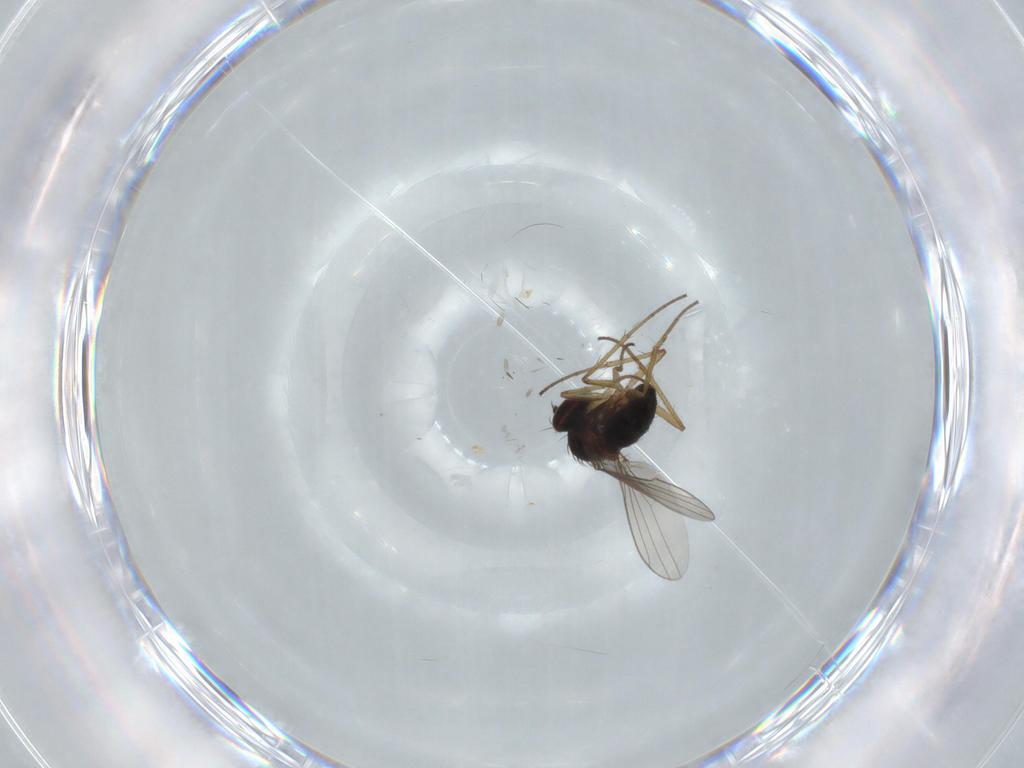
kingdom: Animalia
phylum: Arthropoda
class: Insecta
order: Diptera
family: Dolichopodidae
